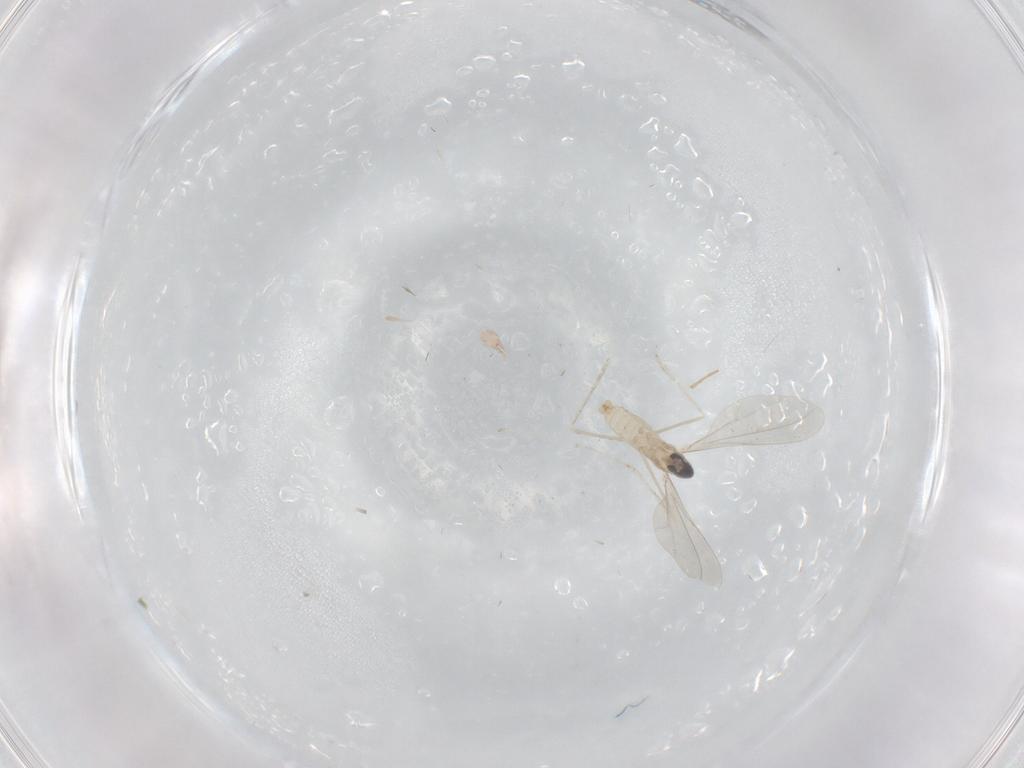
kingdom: Animalia
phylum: Arthropoda
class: Insecta
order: Diptera
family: Cecidomyiidae
